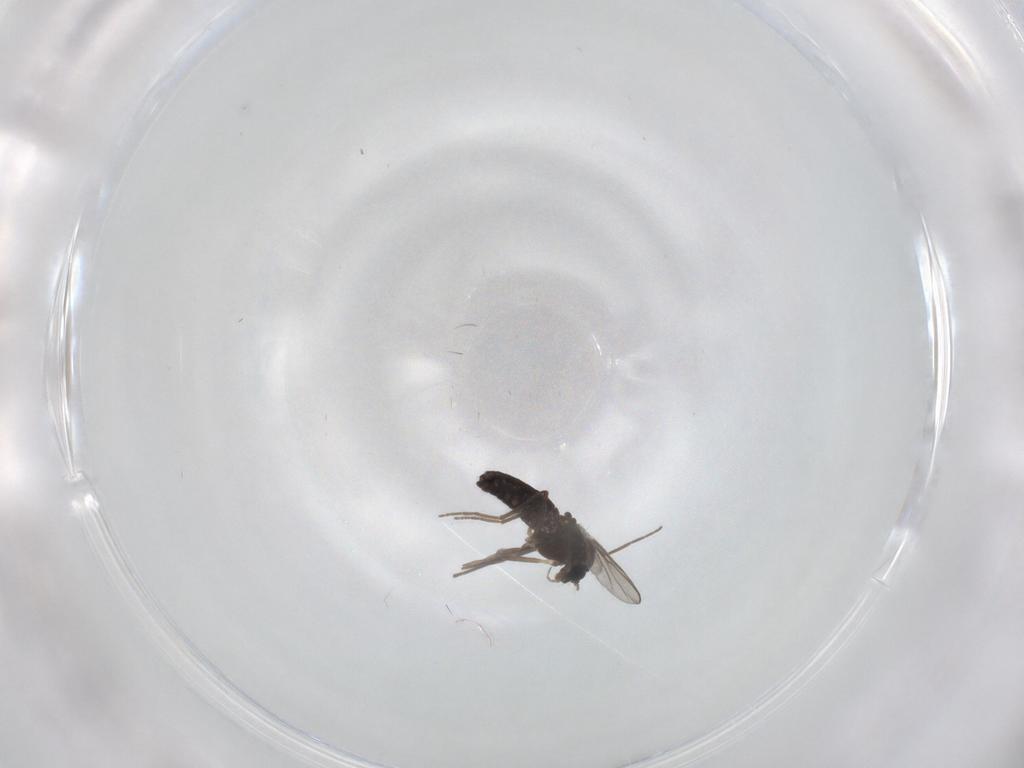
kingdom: Animalia
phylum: Arthropoda
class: Insecta
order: Diptera
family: Chironomidae
